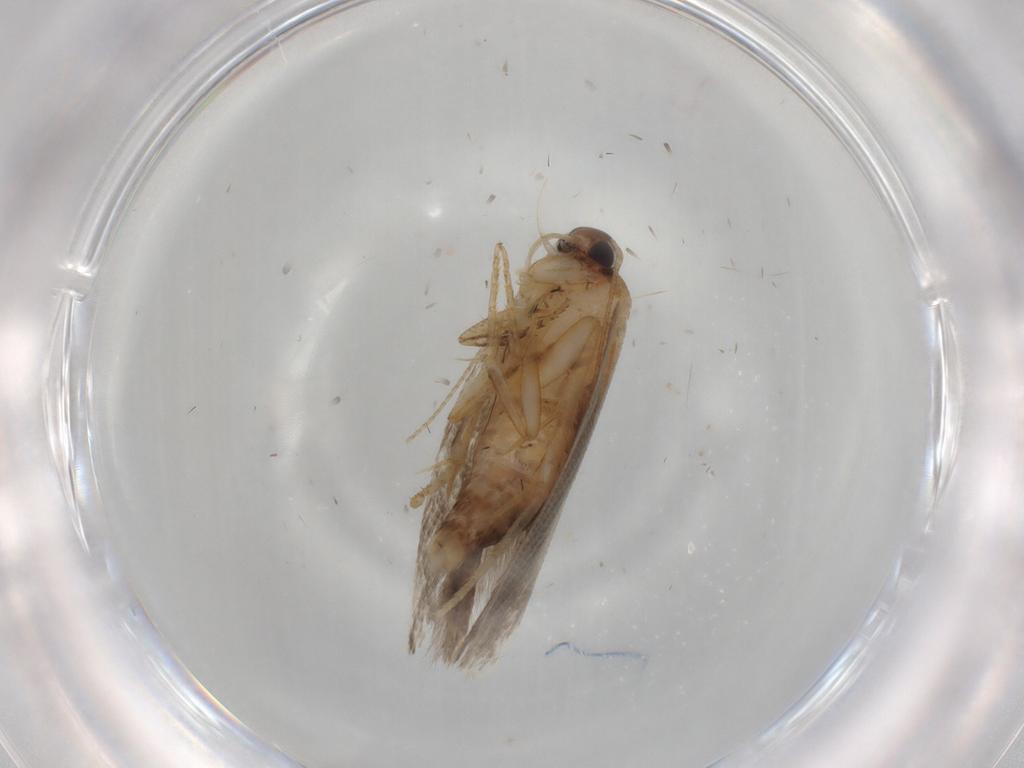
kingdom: Animalia
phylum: Arthropoda
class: Insecta
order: Lepidoptera
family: Gelechiidae
